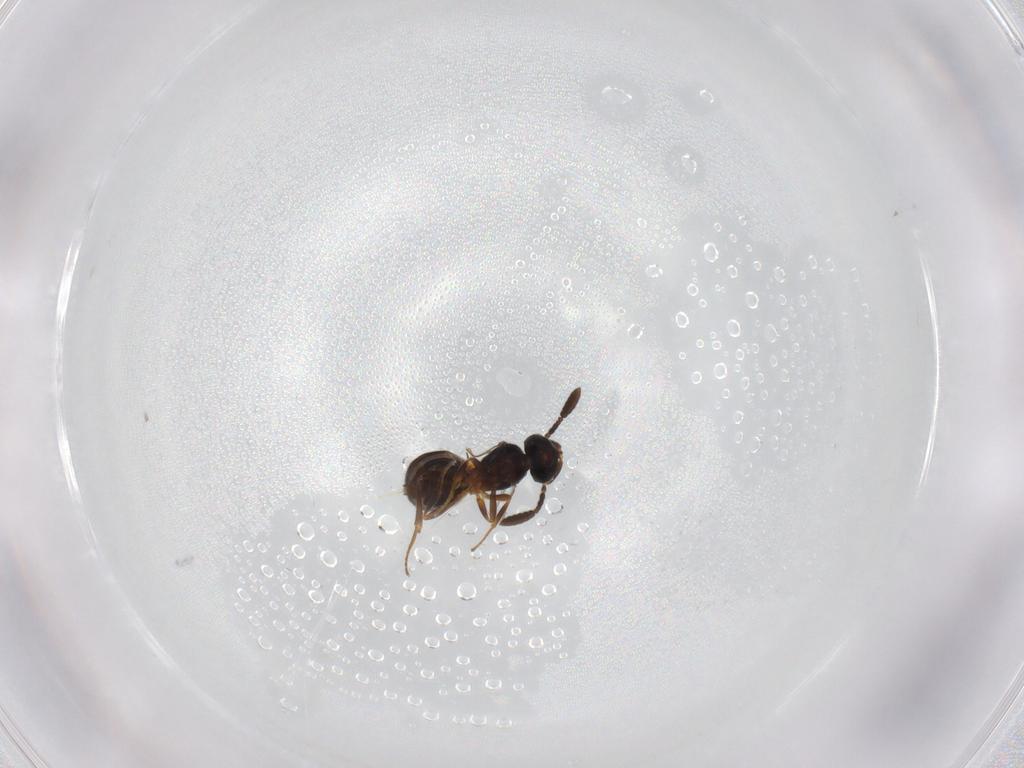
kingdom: Animalia
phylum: Arthropoda
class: Insecta
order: Hymenoptera
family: Scelionidae
